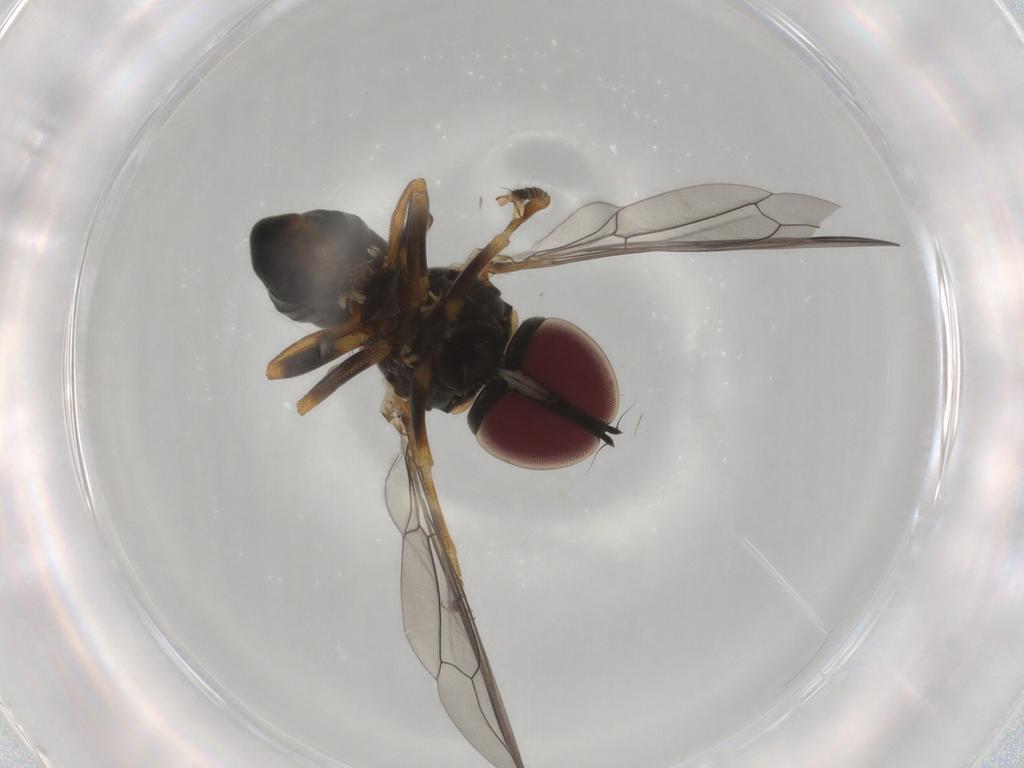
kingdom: Animalia
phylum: Arthropoda
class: Insecta
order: Diptera
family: Pipunculidae
